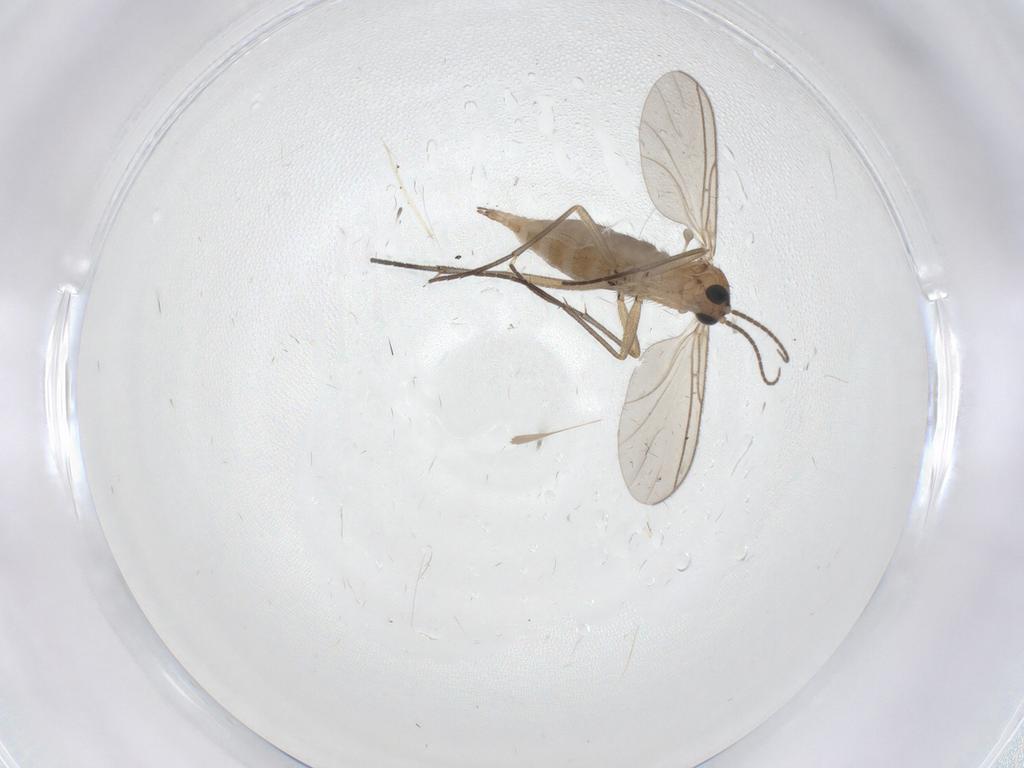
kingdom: Animalia
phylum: Arthropoda
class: Insecta
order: Diptera
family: Sciaridae
